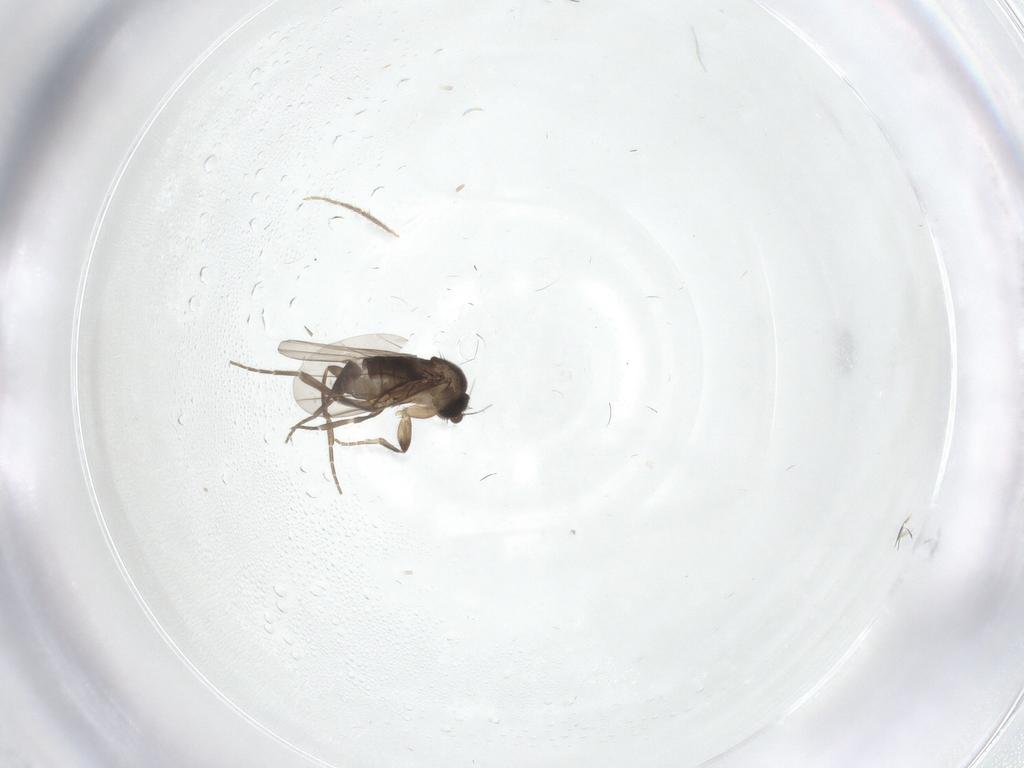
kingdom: Animalia
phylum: Arthropoda
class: Insecta
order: Diptera
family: Phoridae
